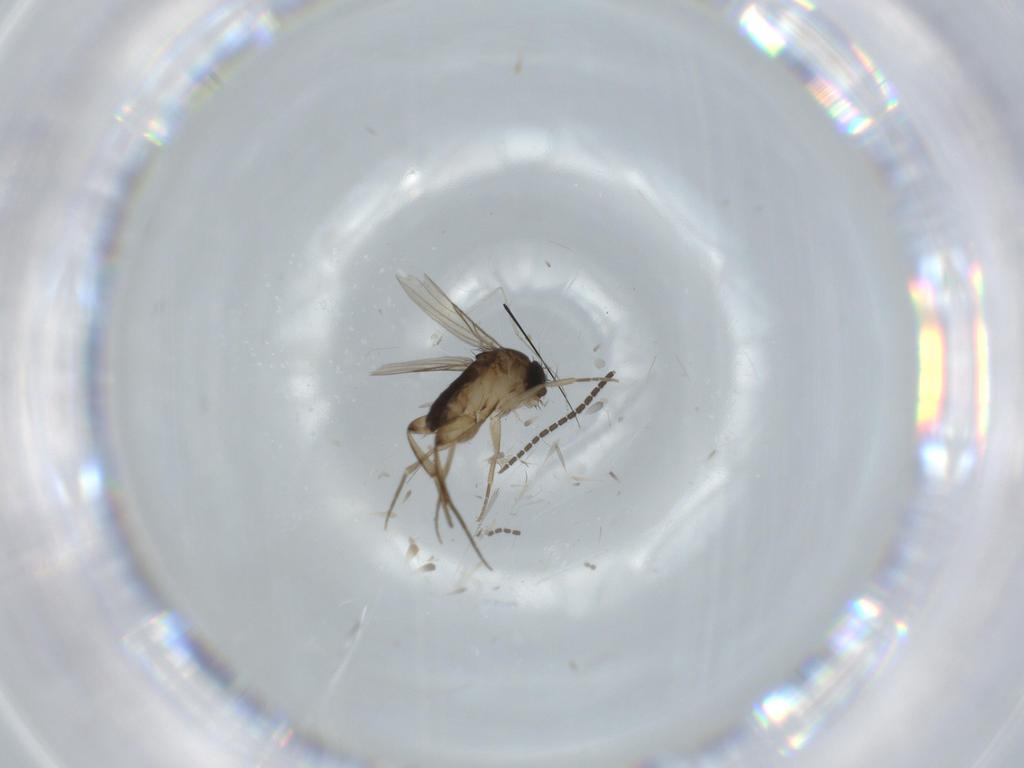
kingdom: Animalia
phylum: Arthropoda
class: Insecta
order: Diptera
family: Phoridae
